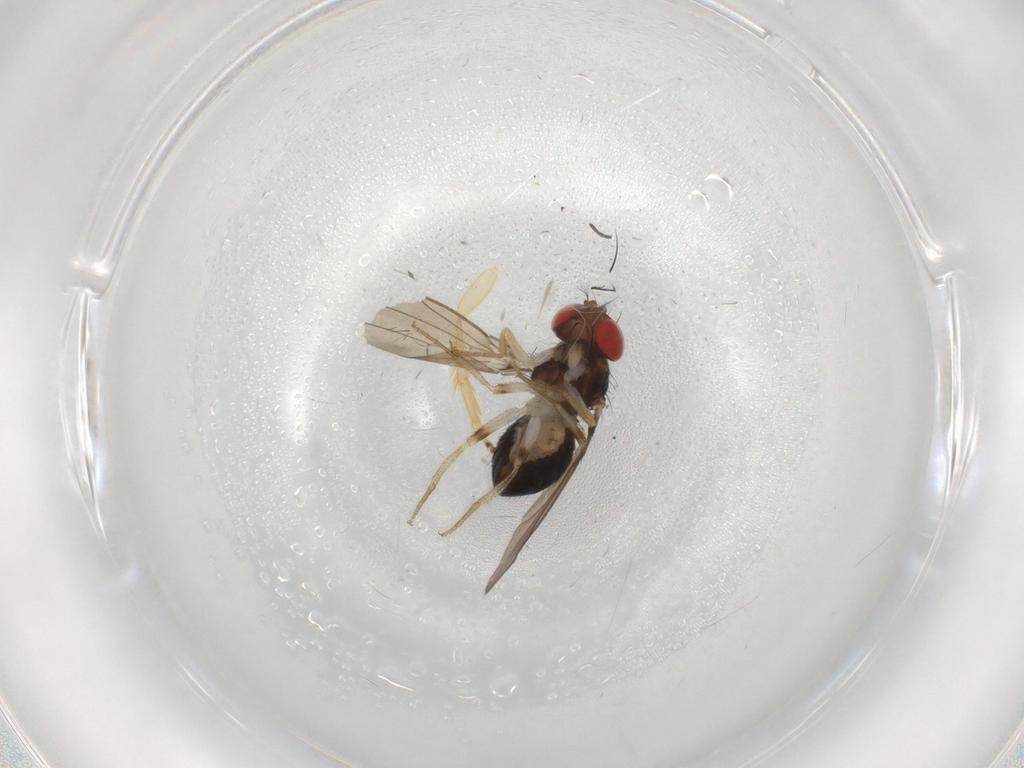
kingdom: Animalia
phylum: Arthropoda
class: Insecta
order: Diptera
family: Drosophilidae
